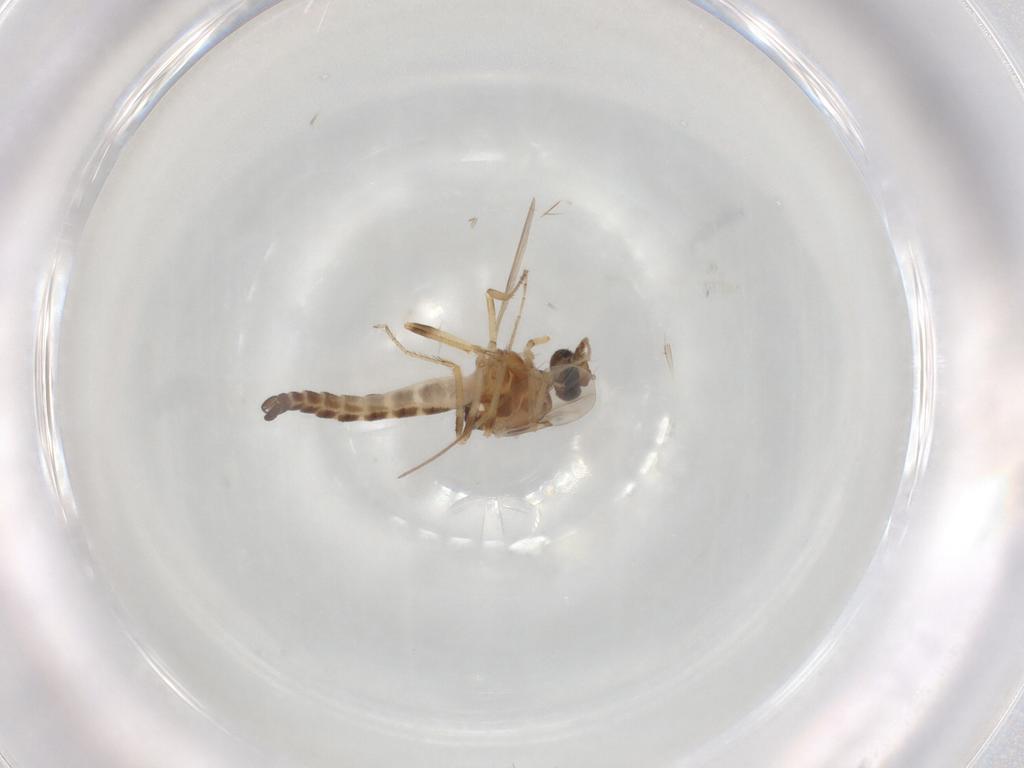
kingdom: Animalia
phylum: Arthropoda
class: Insecta
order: Diptera
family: Ceratopogonidae
